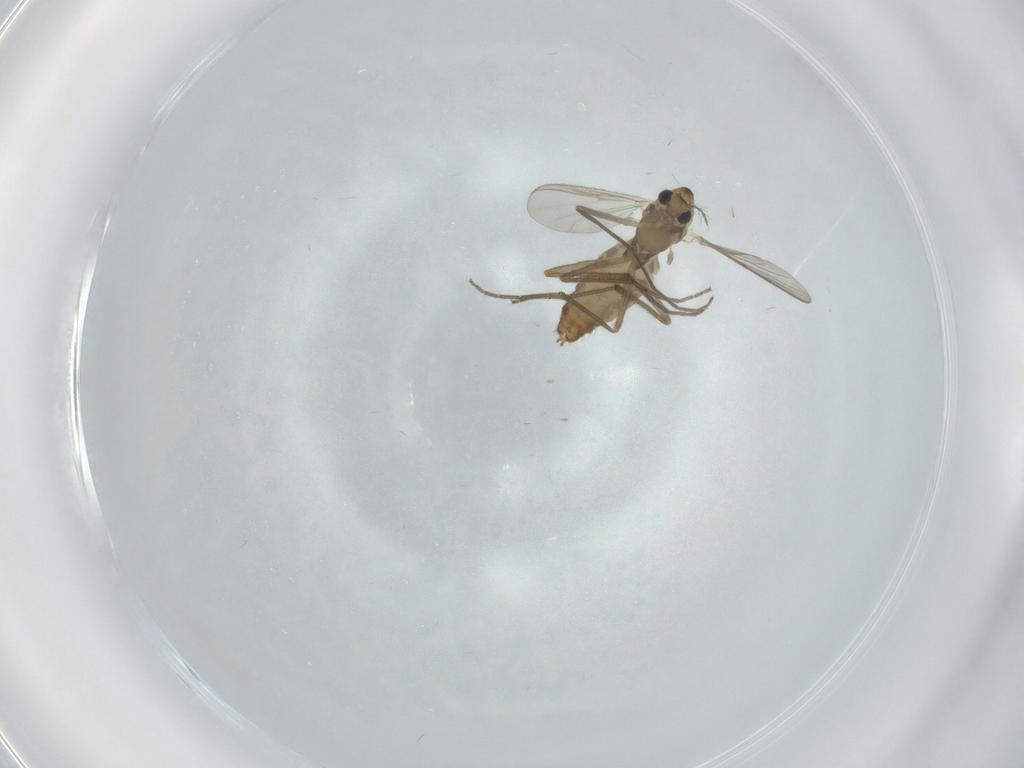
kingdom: Animalia
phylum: Arthropoda
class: Insecta
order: Diptera
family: Chironomidae
